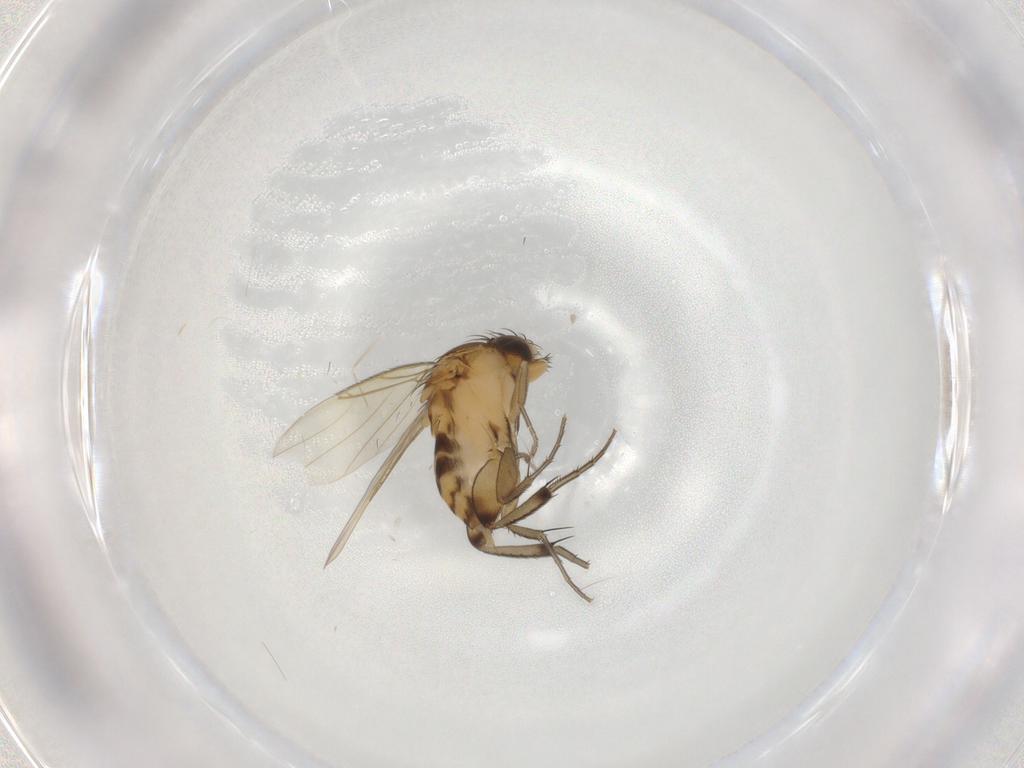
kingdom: Animalia
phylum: Arthropoda
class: Insecta
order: Diptera
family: Phoridae
